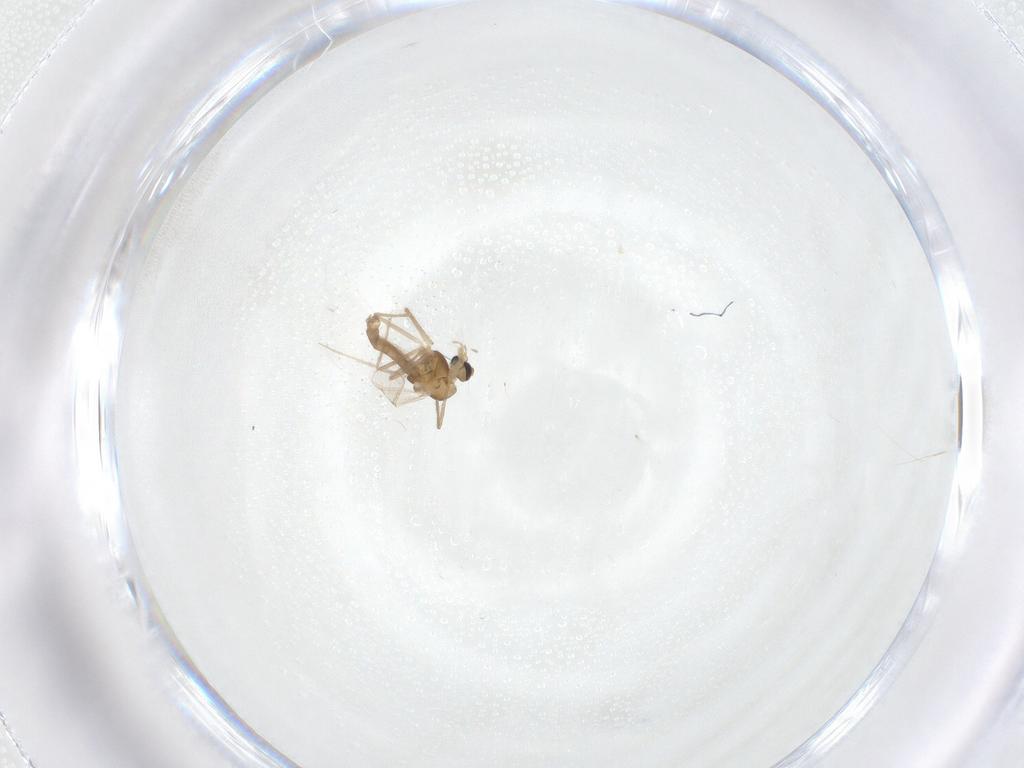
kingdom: Animalia
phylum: Arthropoda
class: Insecta
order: Diptera
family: Chironomidae
